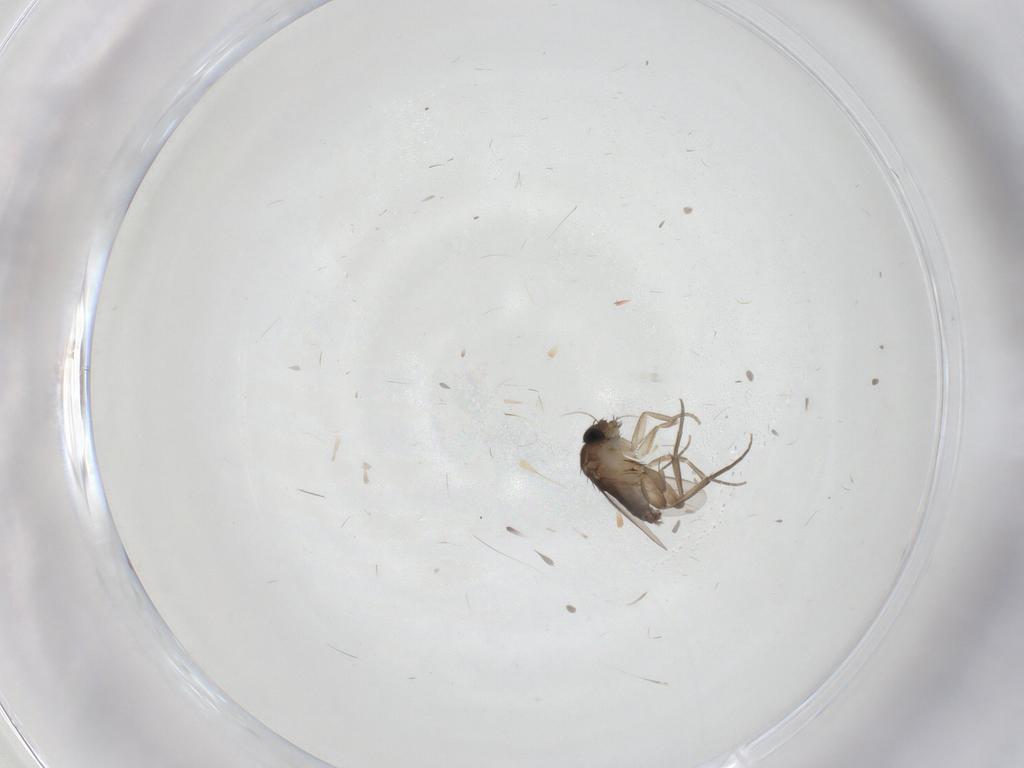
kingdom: Animalia
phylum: Arthropoda
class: Insecta
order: Diptera
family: Phoridae
